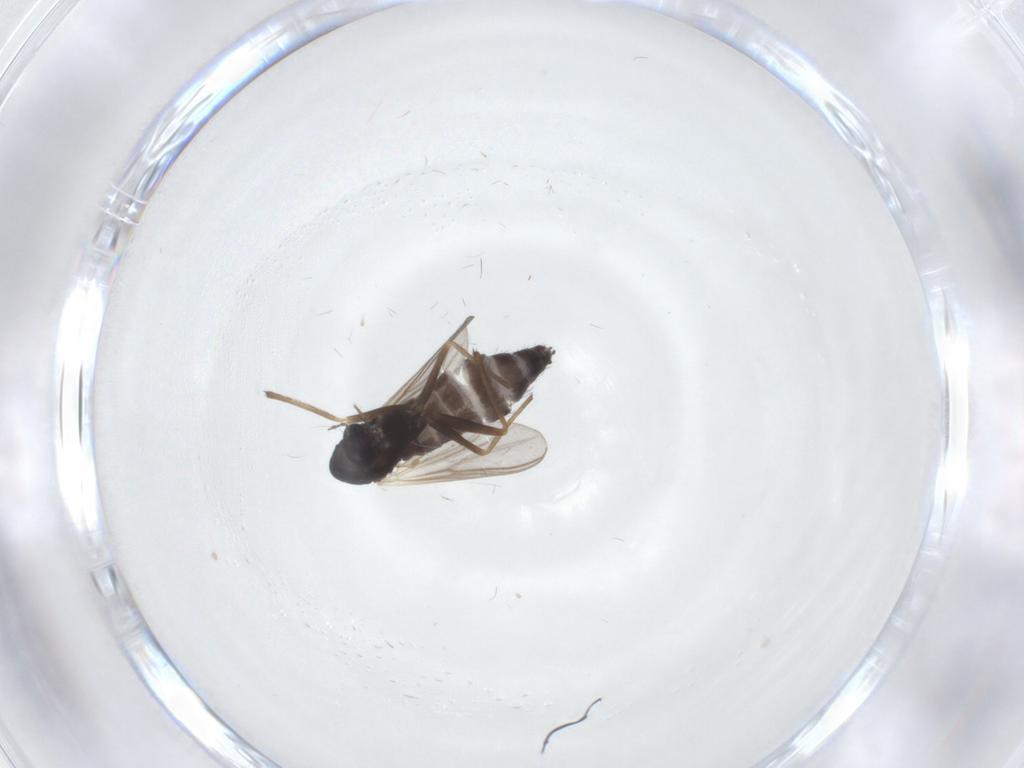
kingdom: Animalia
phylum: Arthropoda
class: Insecta
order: Diptera
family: Chironomidae
